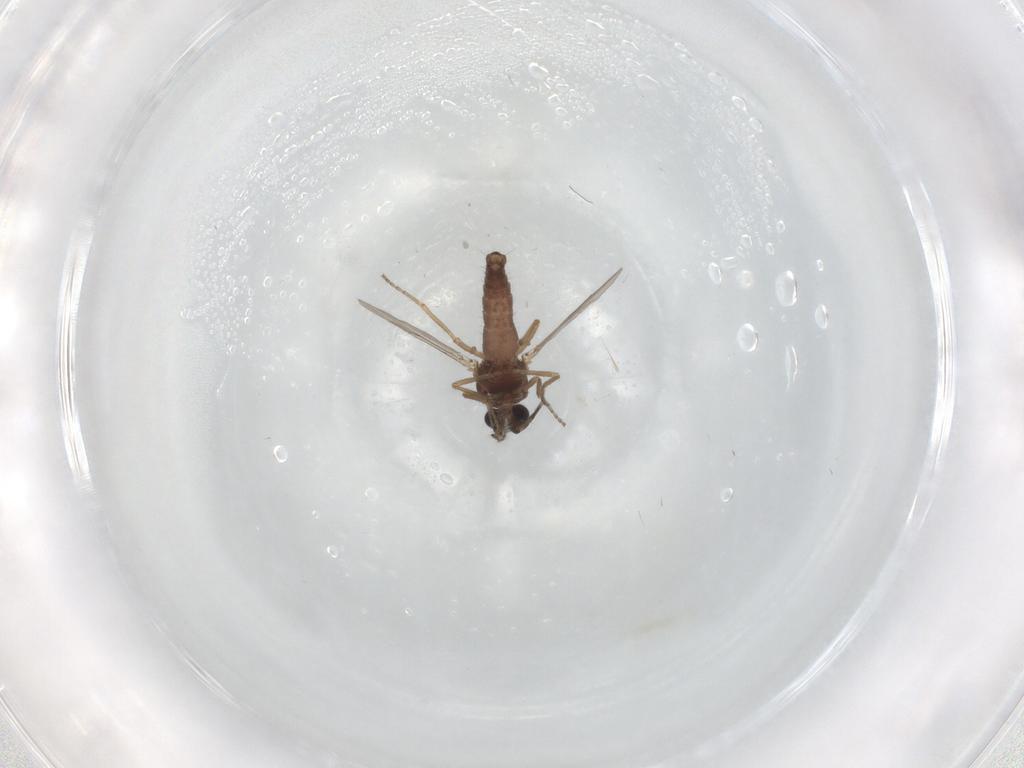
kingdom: Animalia
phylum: Arthropoda
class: Insecta
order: Diptera
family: Ceratopogonidae
